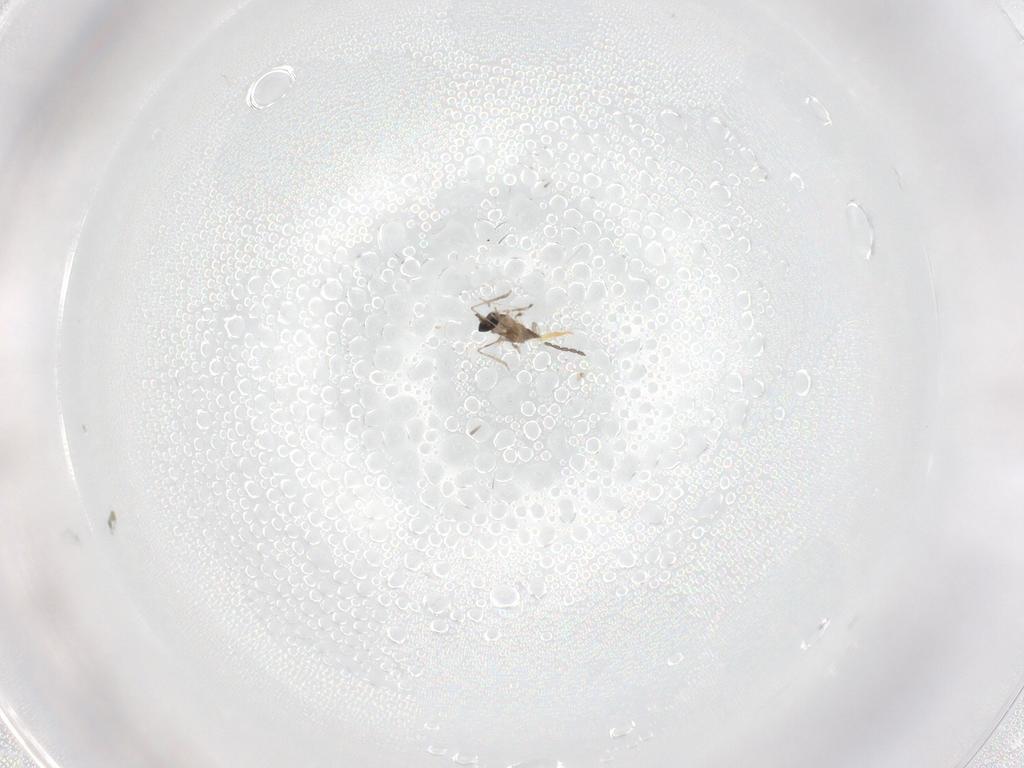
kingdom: Animalia
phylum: Arthropoda
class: Insecta
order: Diptera
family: Cecidomyiidae
